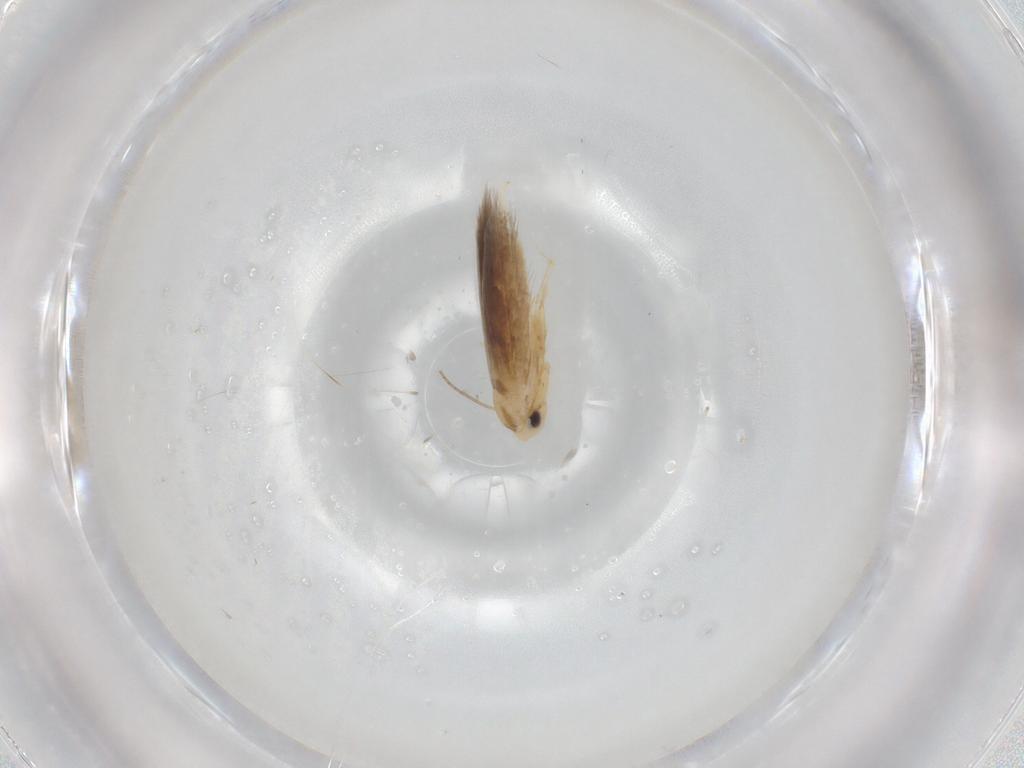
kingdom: Animalia
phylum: Arthropoda
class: Insecta
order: Lepidoptera
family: Bucculatricidae
